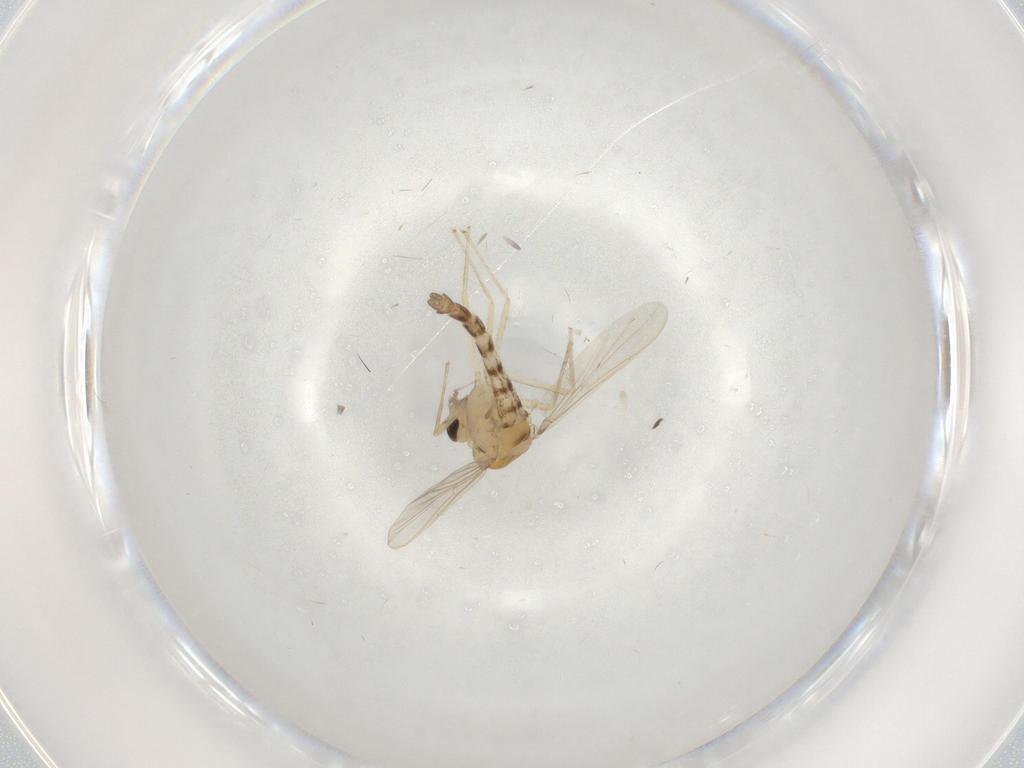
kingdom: Animalia
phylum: Arthropoda
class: Insecta
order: Diptera
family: Chironomidae
